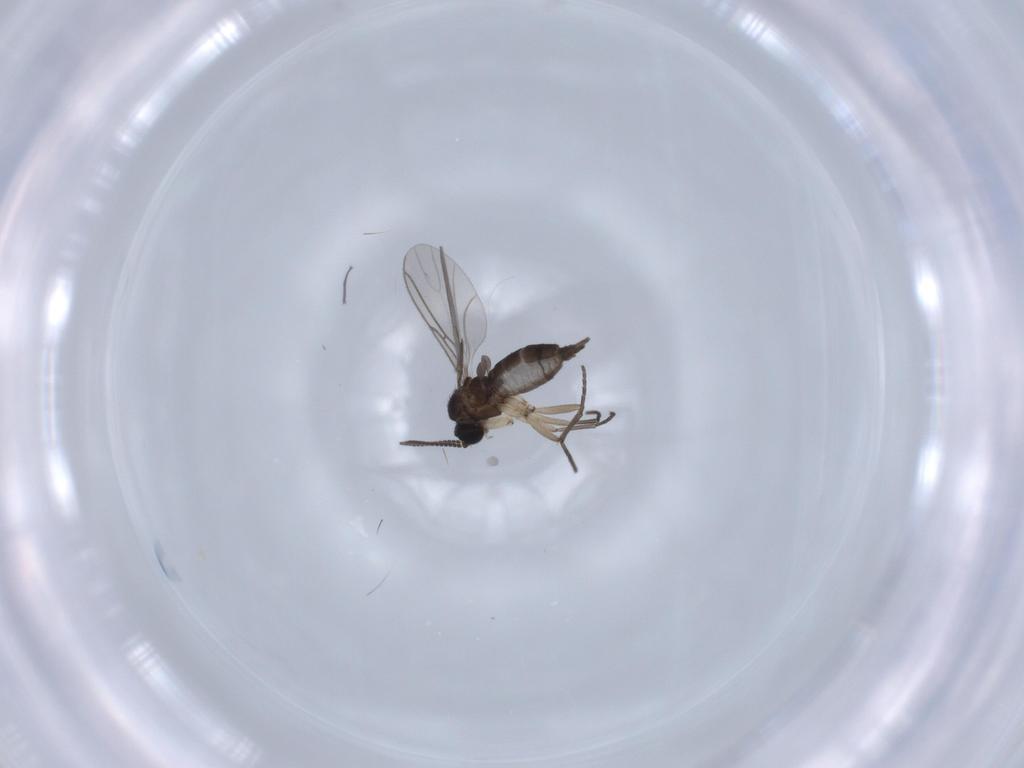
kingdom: Animalia
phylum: Arthropoda
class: Insecta
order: Diptera
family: Sciaridae
